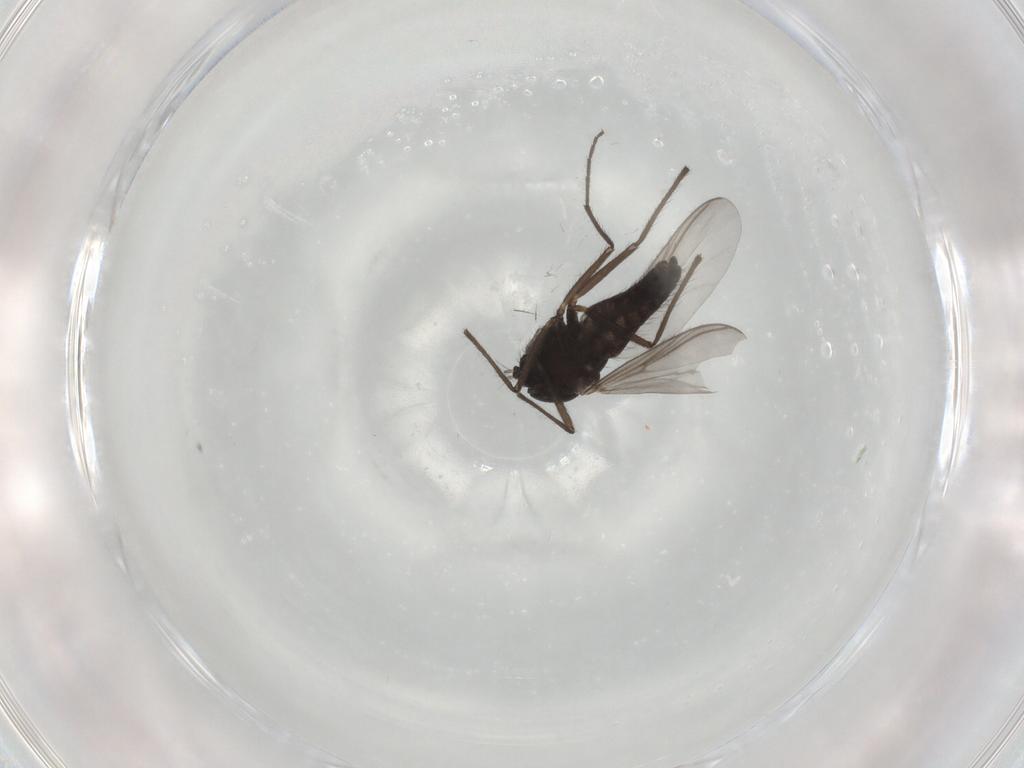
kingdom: Animalia
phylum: Arthropoda
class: Insecta
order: Diptera
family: Chironomidae
